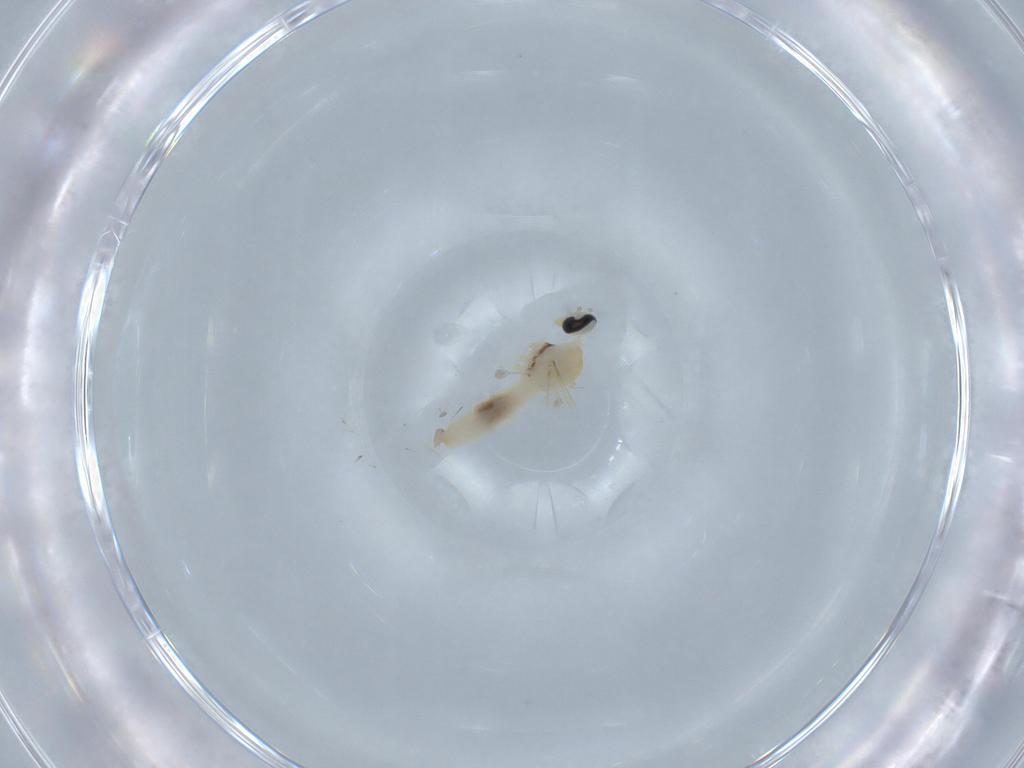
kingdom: Animalia
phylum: Arthropoda
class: Insecta
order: Diptera
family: Cecidomyiidae
